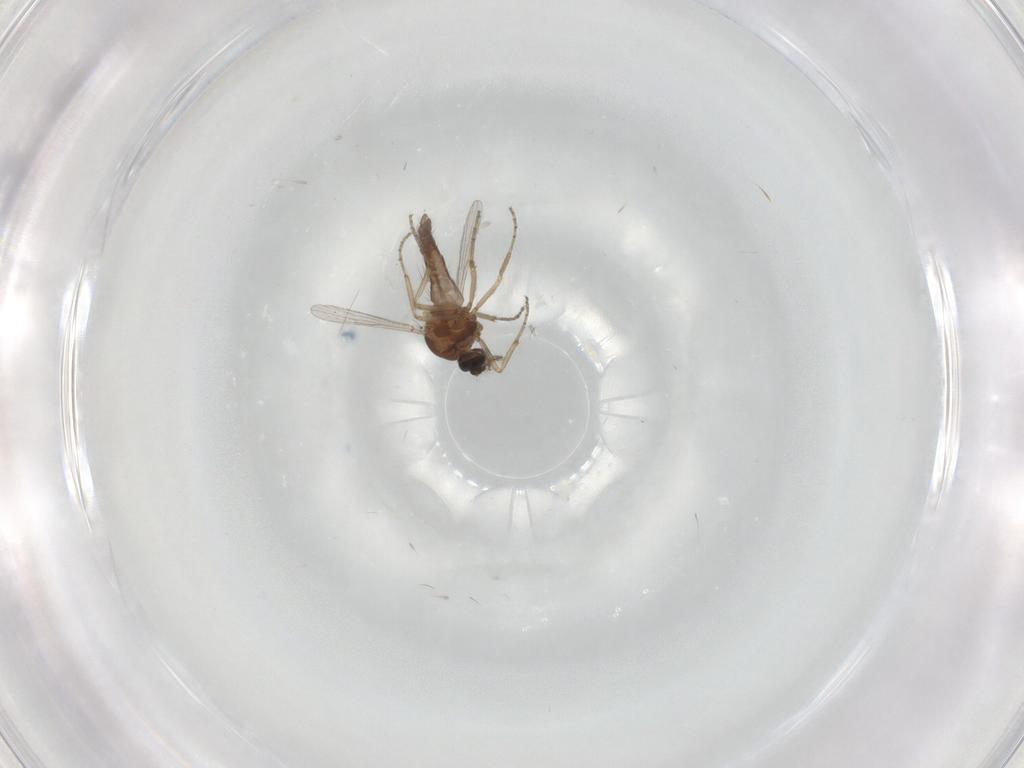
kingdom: Animalia
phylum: Arthropoda
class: Insecta
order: Diptera
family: Ceratopogonidae
